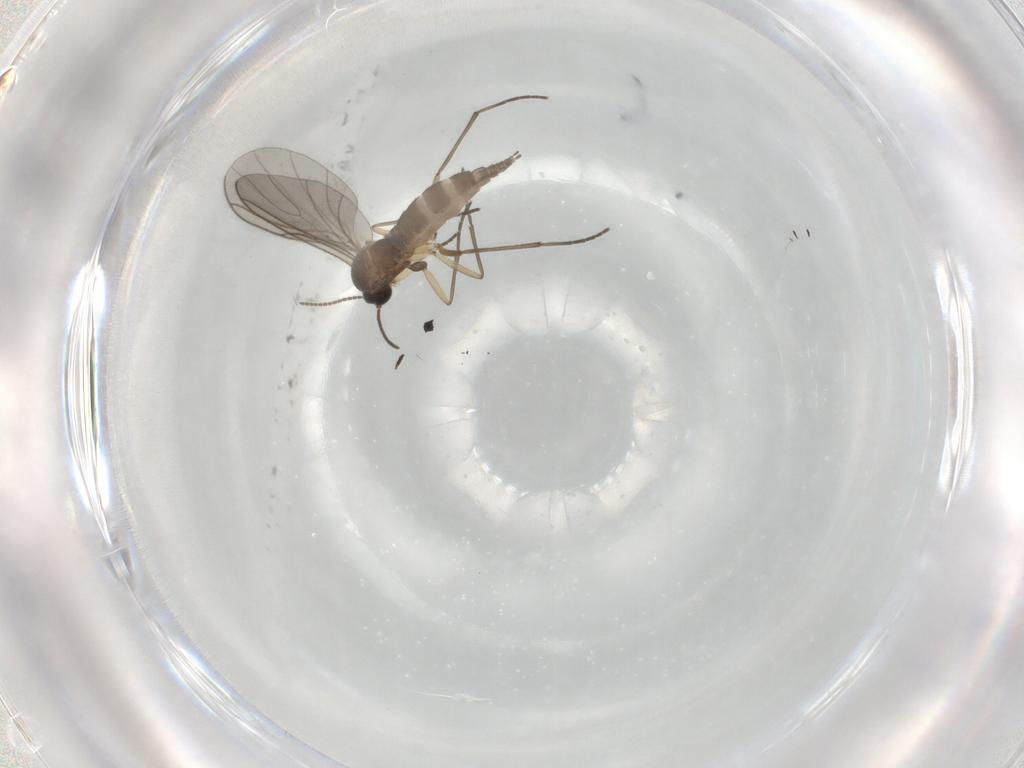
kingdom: Animalia
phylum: Arthropoda
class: Insecta
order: Diptera
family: Sciaridae
